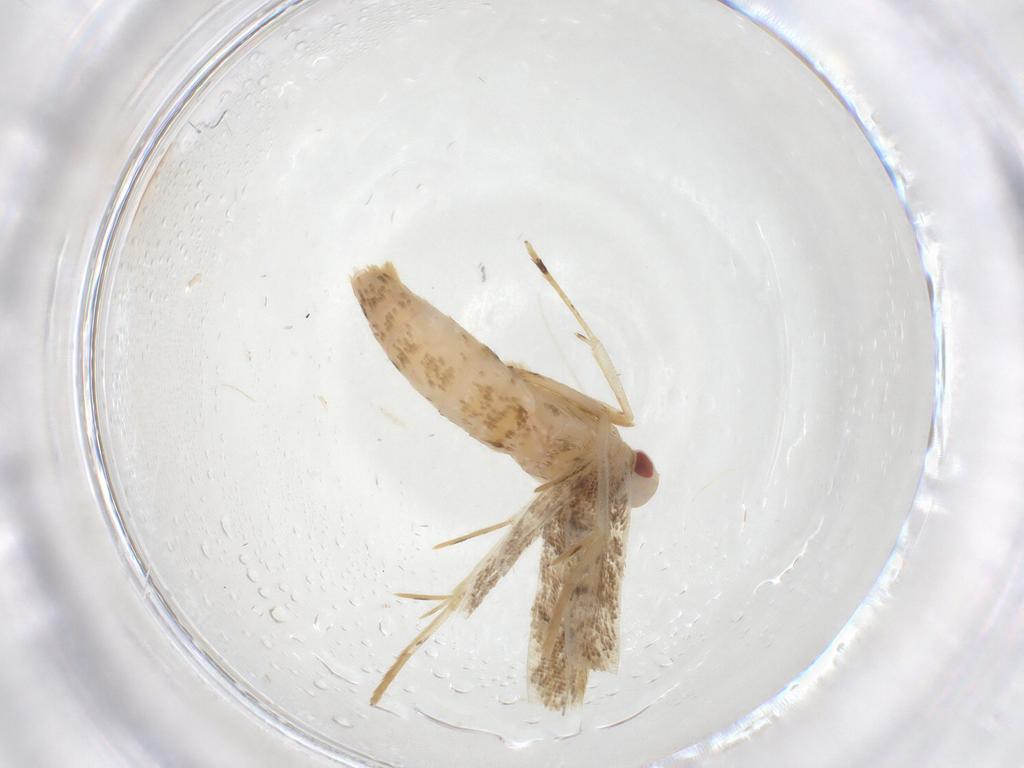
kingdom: Animalia
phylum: Arthropoda
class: Insecta
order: Lepidoptera
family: Cosmopterigidae
